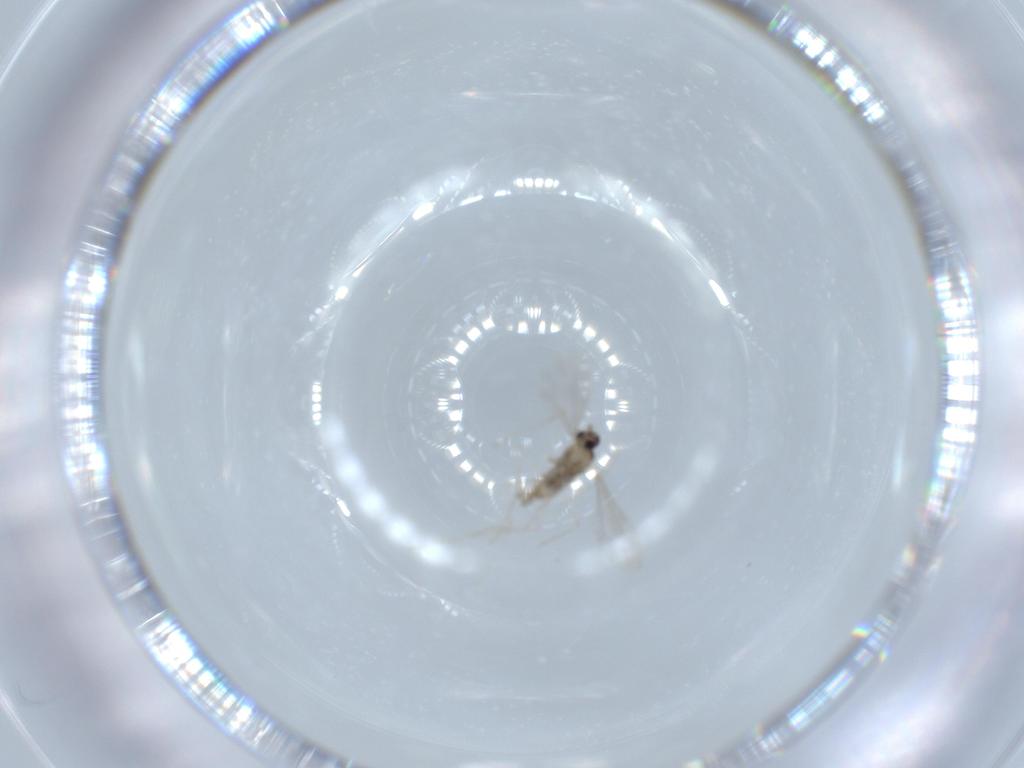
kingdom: Animalia
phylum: Arthropoda
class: Insecta
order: Diptera
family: Cecidomyiidae
